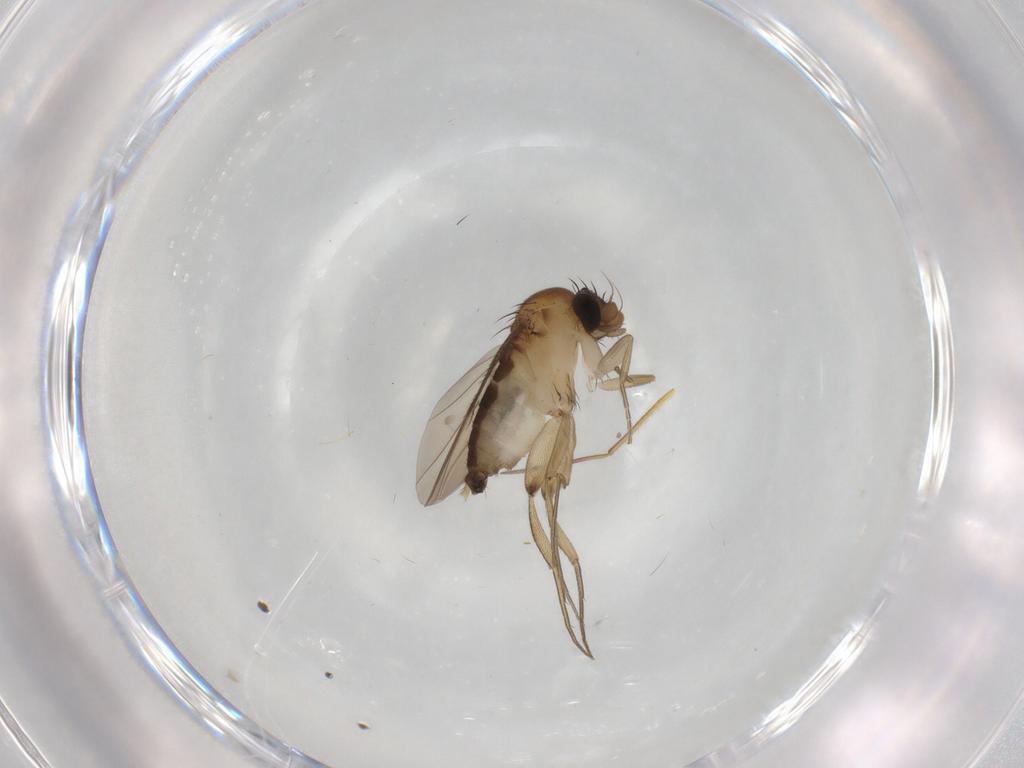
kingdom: Animalia
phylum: Arthropoda
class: Insecta
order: Diptera
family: Phoridae
